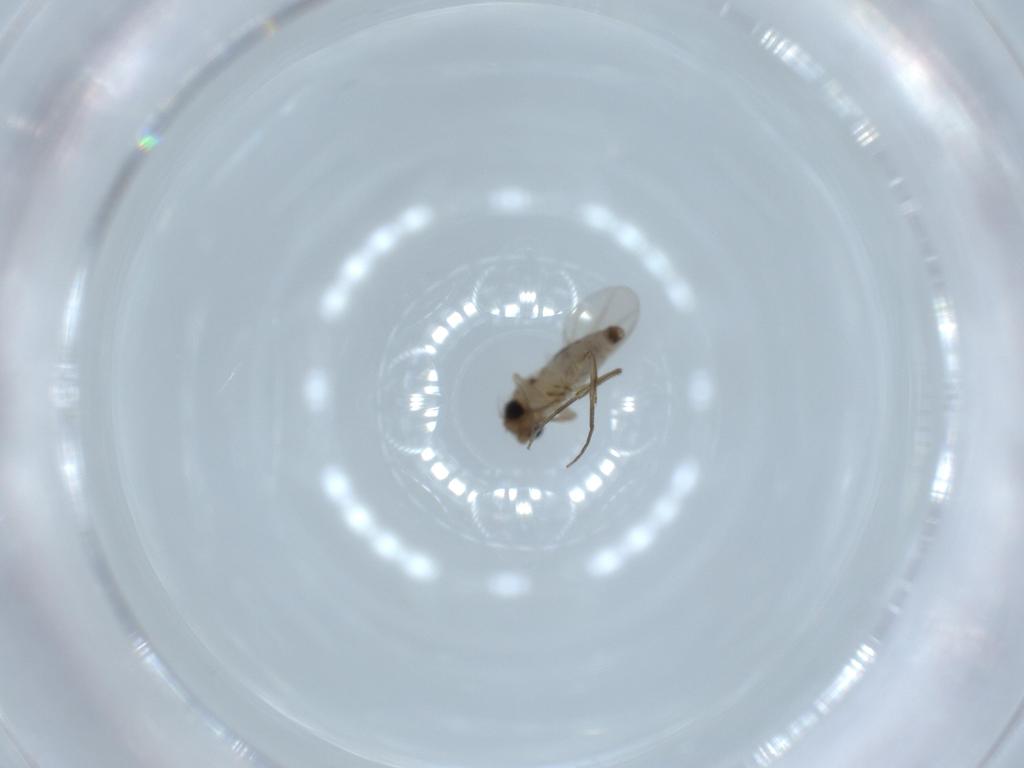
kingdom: Animalia
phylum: Arthropoda
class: Insecta
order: Diptera
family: Phoridae
